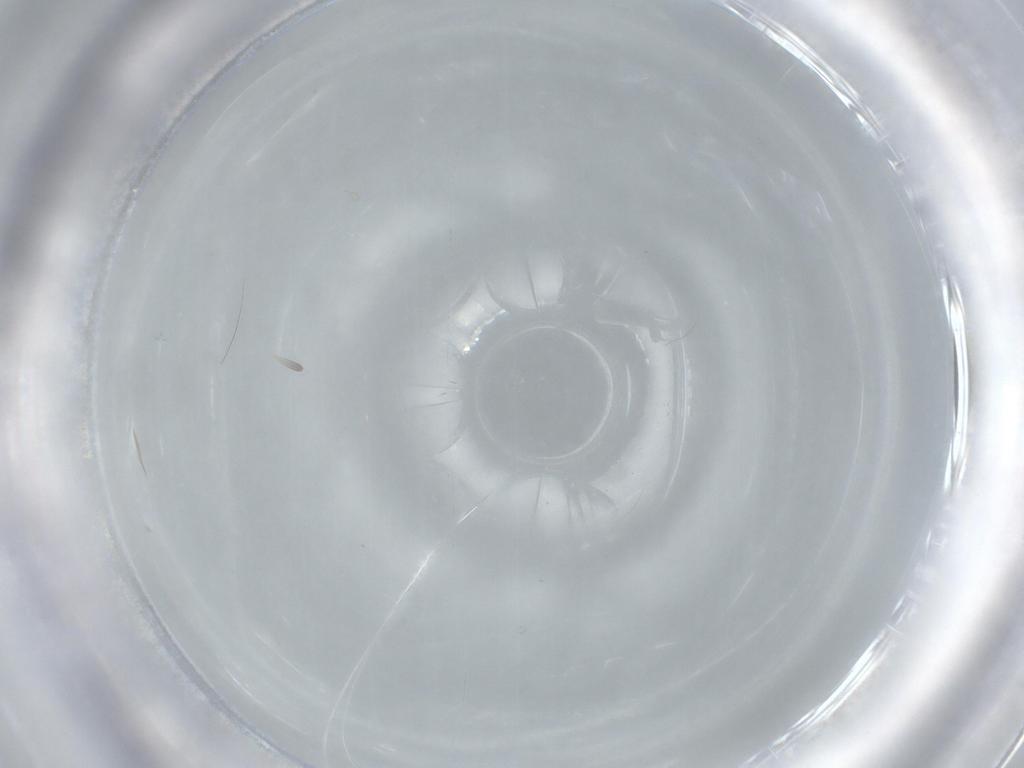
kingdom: Animalia
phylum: Arthropoda
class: Insecta
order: Diptera
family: Cecidomyiidae
